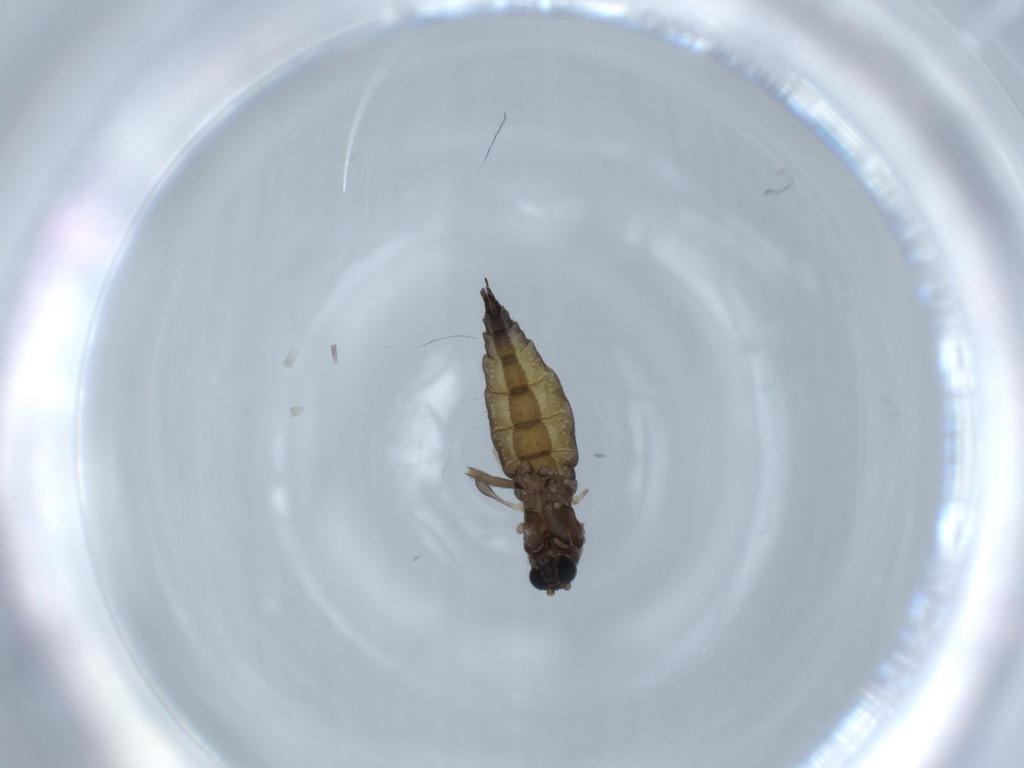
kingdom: Animalia
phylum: Arthropoda
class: Insecta
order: Diptera
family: Sciaridae
